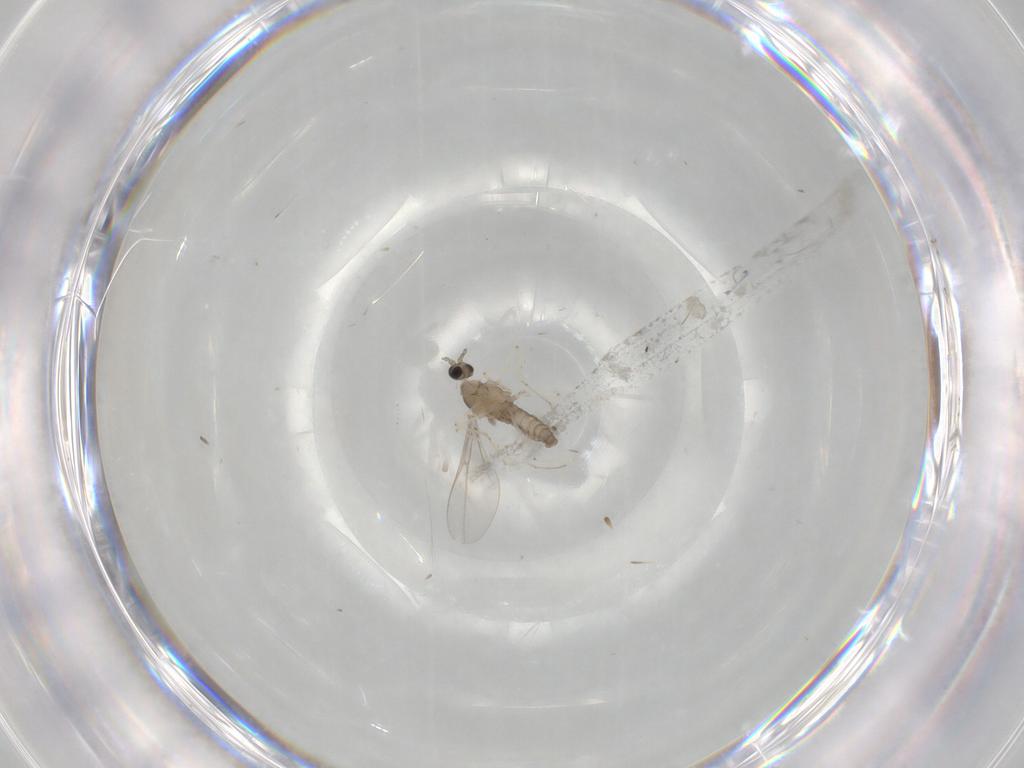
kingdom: Animalia
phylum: Arthropoda
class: Insecta
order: Diptera
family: Cecidomyiidae
